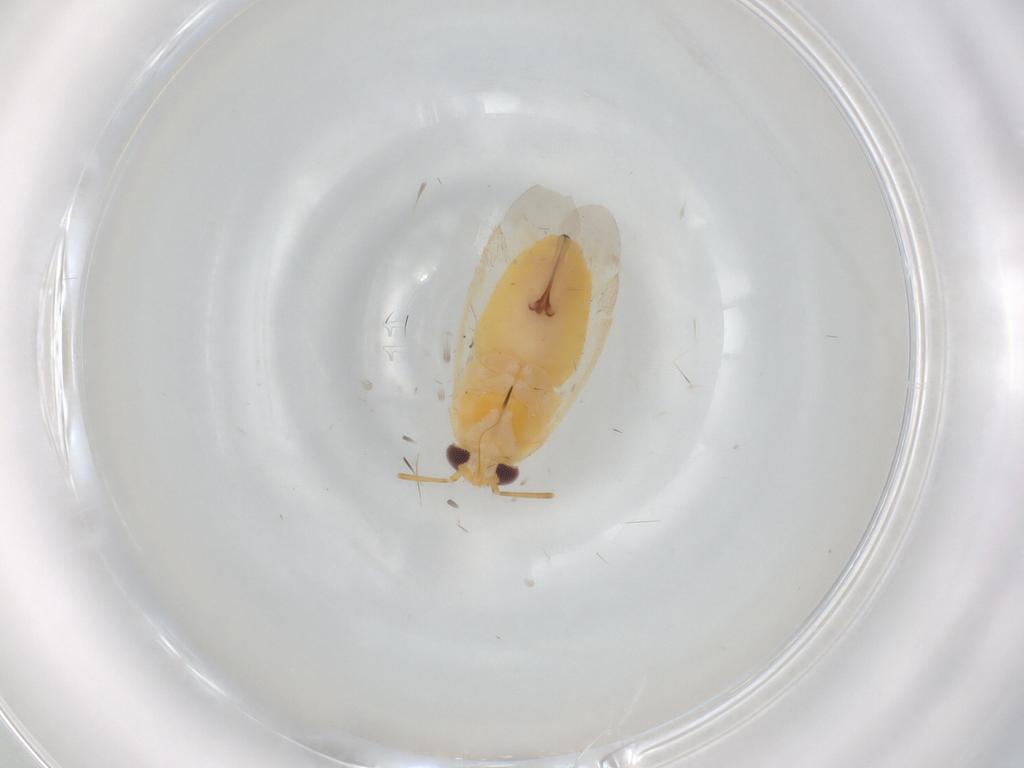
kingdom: Animalia
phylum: Arthropoda
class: Insecta
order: Hemiptera
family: Miridae
